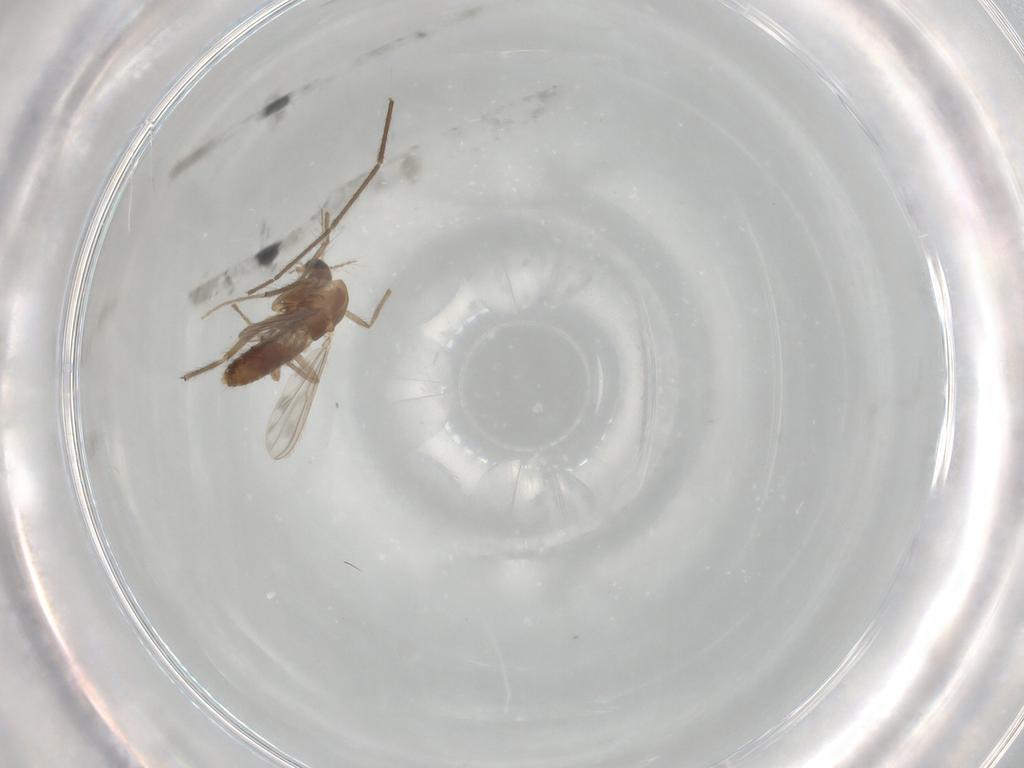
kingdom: Animalia
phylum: Arthropoda
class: Insecta
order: Diptera
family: Chironomidae
